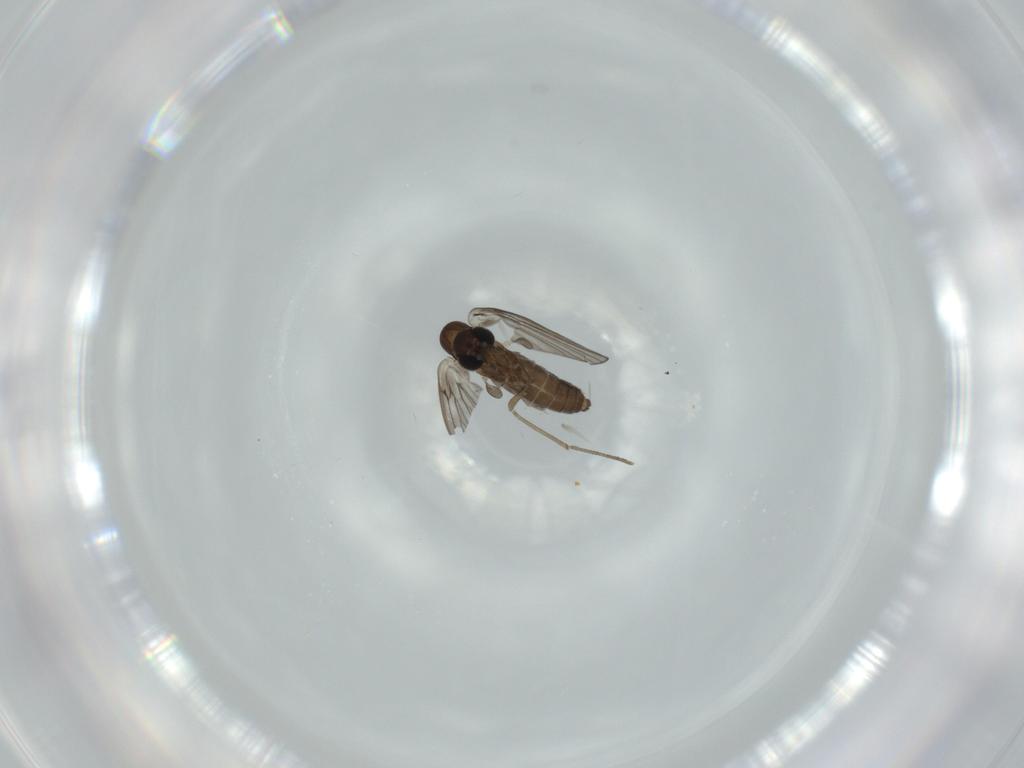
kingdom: Animalia
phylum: Arthropoda
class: Insecta
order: Diptera
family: Psychodidae
